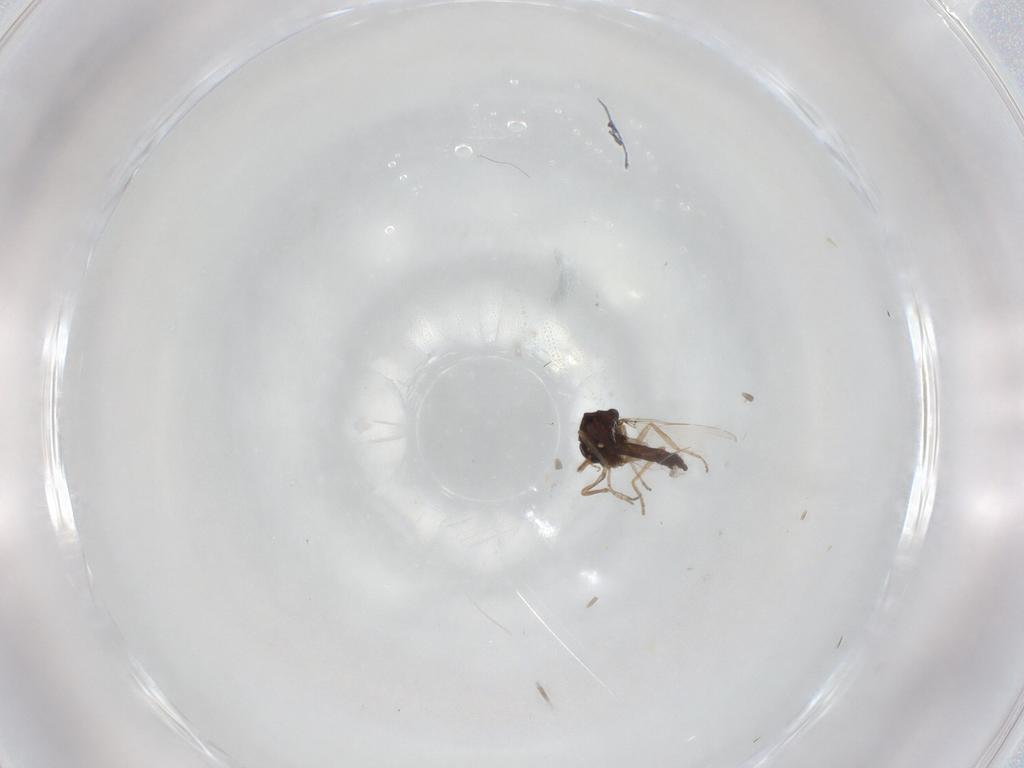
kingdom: Animalia
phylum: Arthropoda
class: Insecta
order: Diptera
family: Ceratopogonidae
